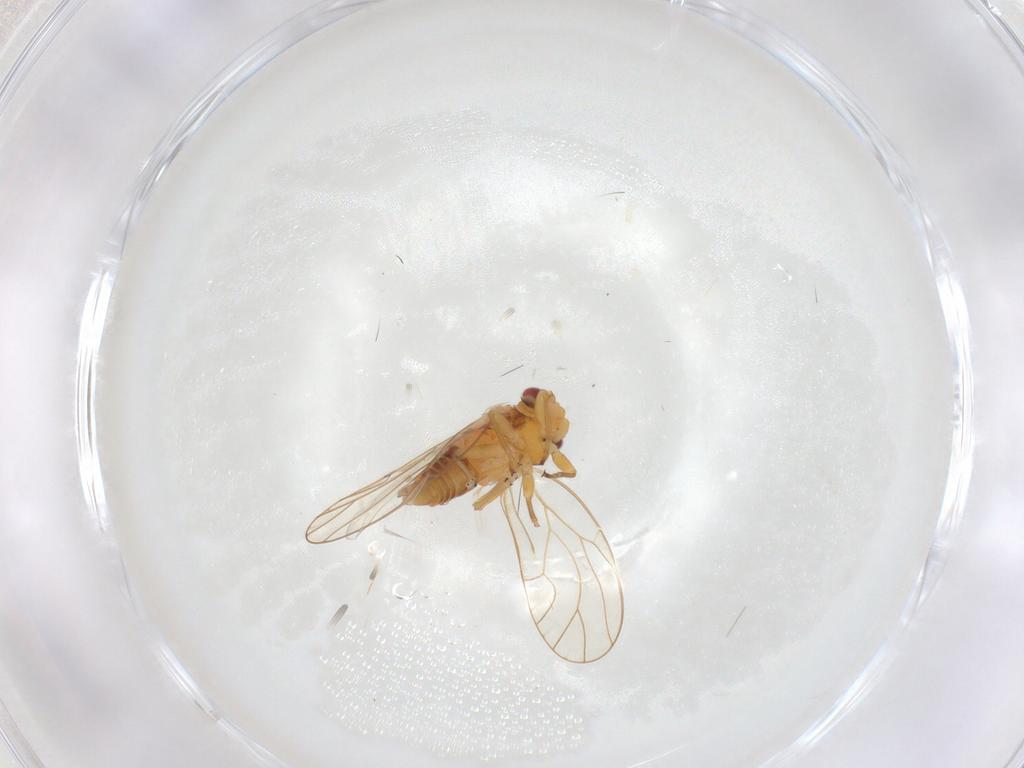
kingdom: Animalia
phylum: Arthropoda
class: Insecta
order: Hemiptera
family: Psyllidae
